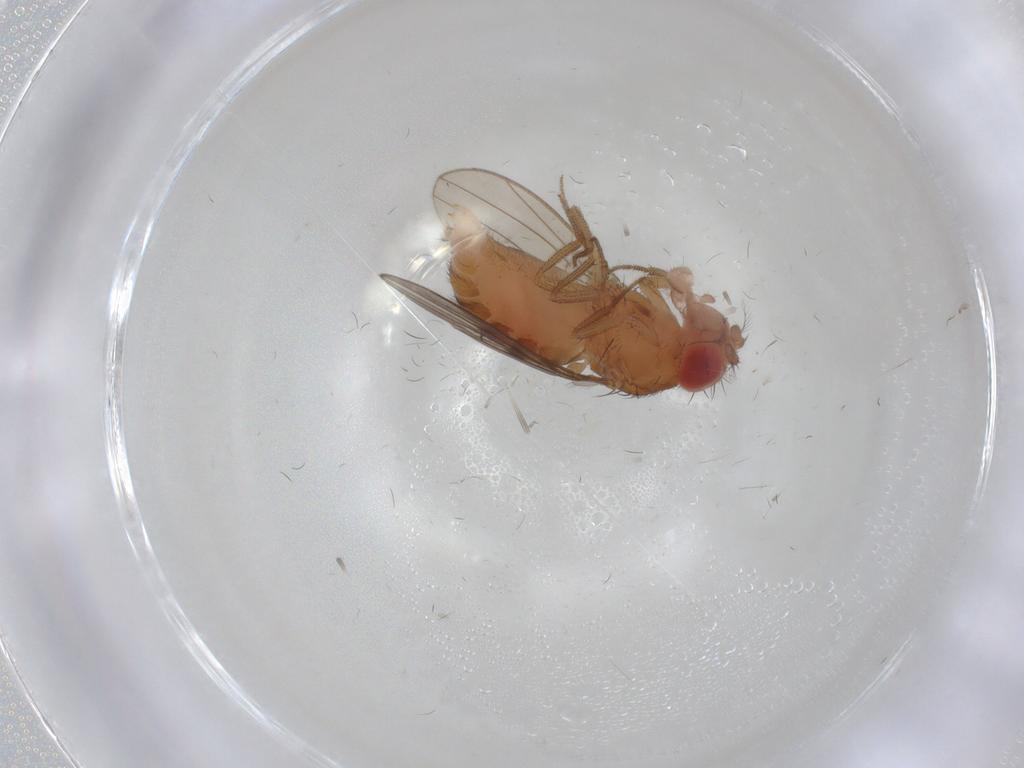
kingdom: Animalia
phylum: Arthropoda
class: Insecta
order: Diptera
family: Drosophilidae
